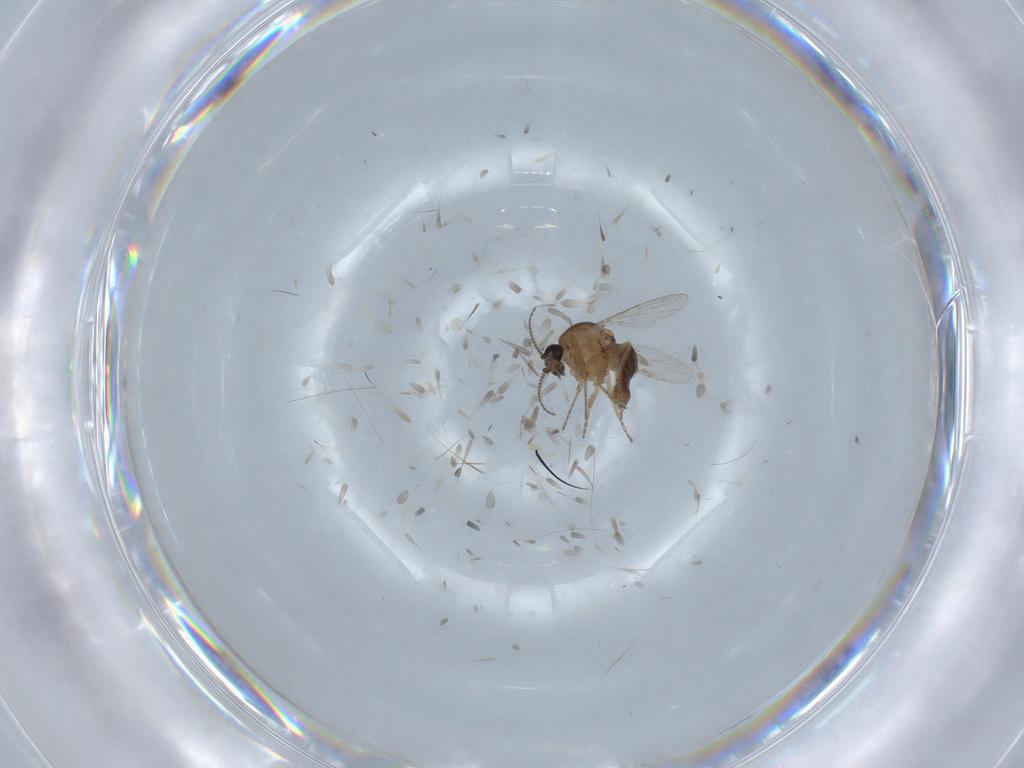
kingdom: Animalia
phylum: Arthropoda
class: Insecta
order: Diptera
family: Ceratopogonidae
